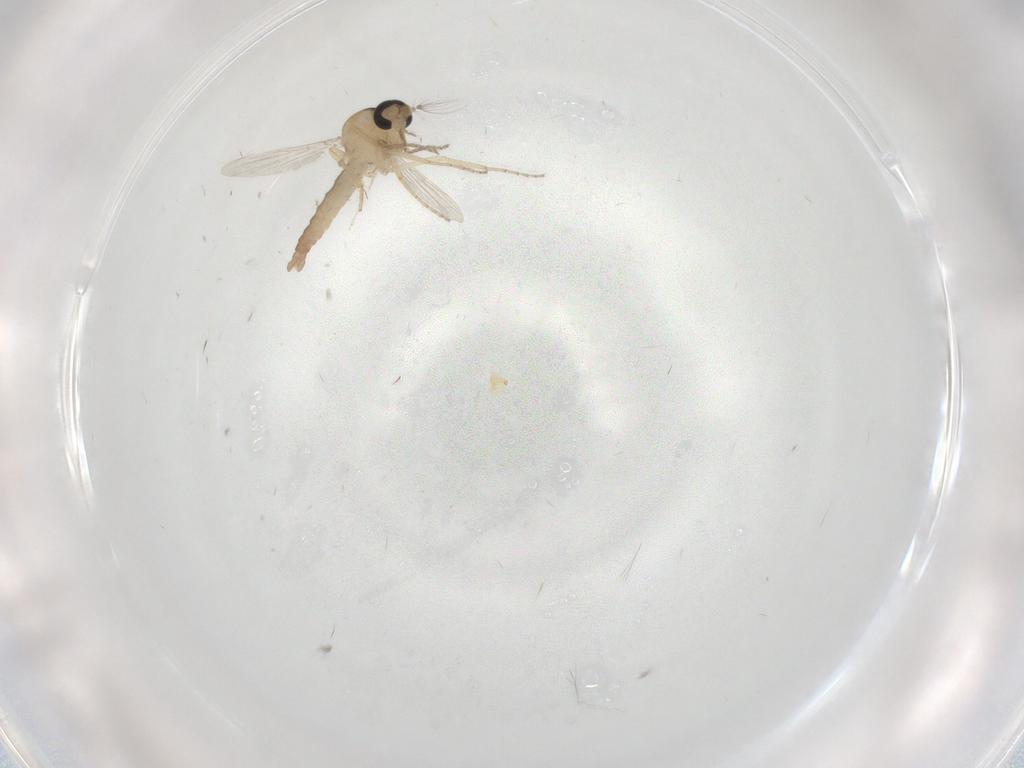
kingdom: Animalia
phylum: Arthropoda
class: Insecta
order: Diptera
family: Ceratopogonidae
